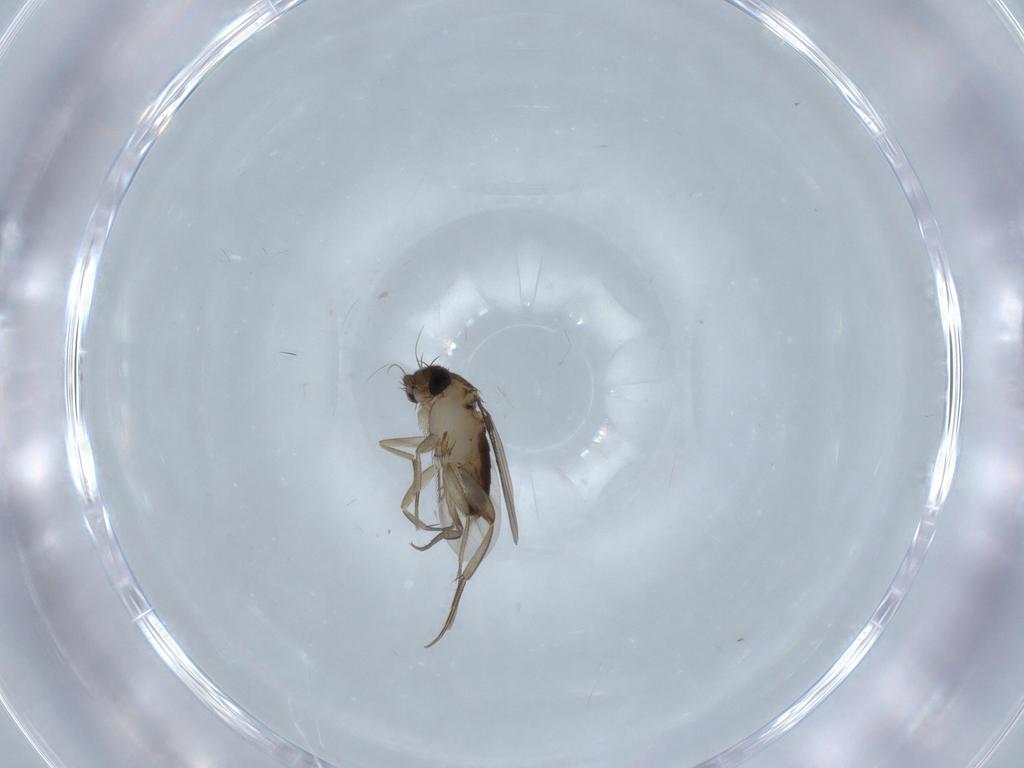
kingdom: Animalia
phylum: Arthropoda
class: Insecta
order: Diptera
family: Phoridae
